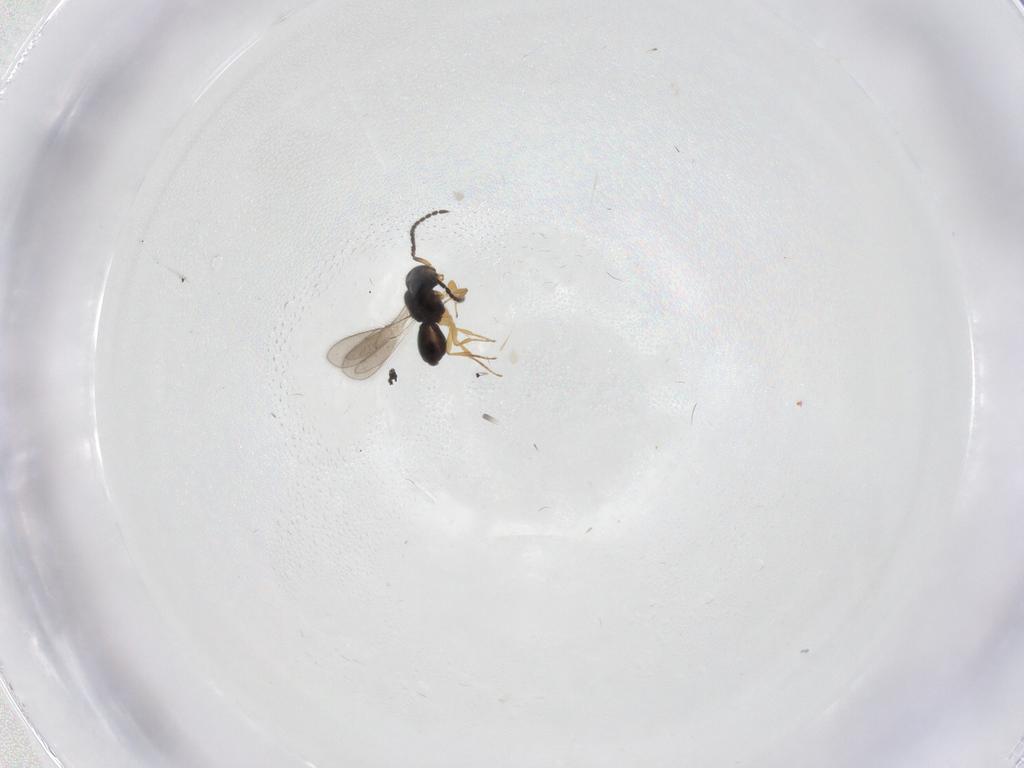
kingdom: Animalia
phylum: Arthropoda
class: Insecta
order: Hymenoptera
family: Scelionidae
